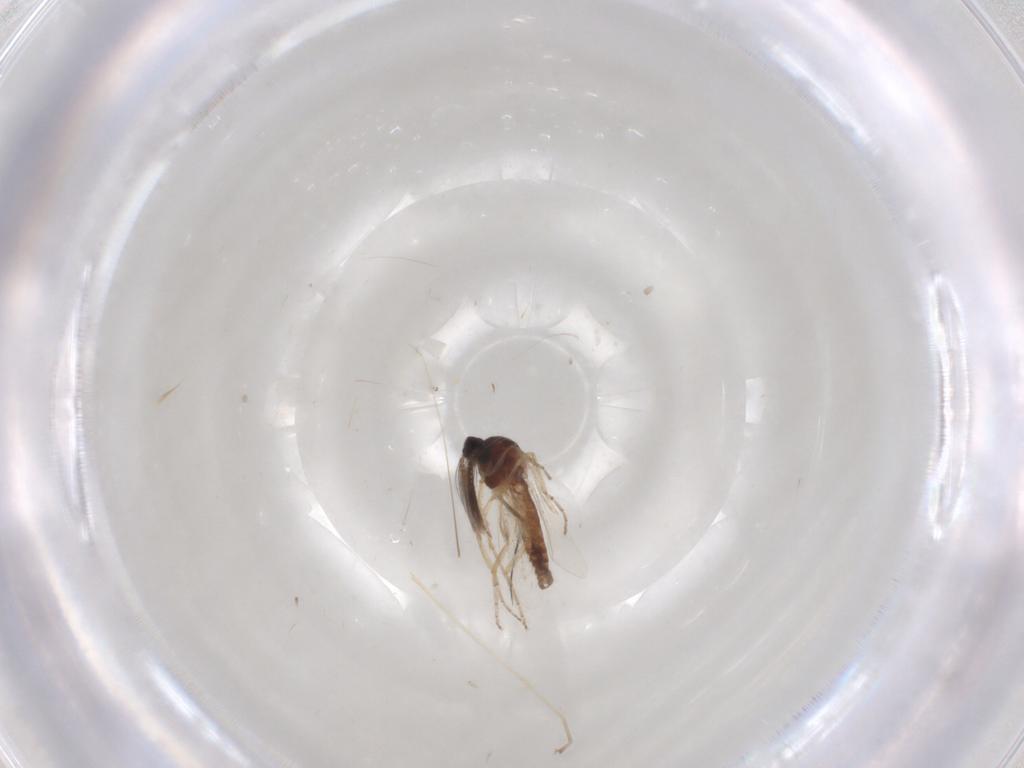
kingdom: Animalia
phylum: Arthropoda
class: Insecta
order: Diptera
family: Ceratopogonidae
